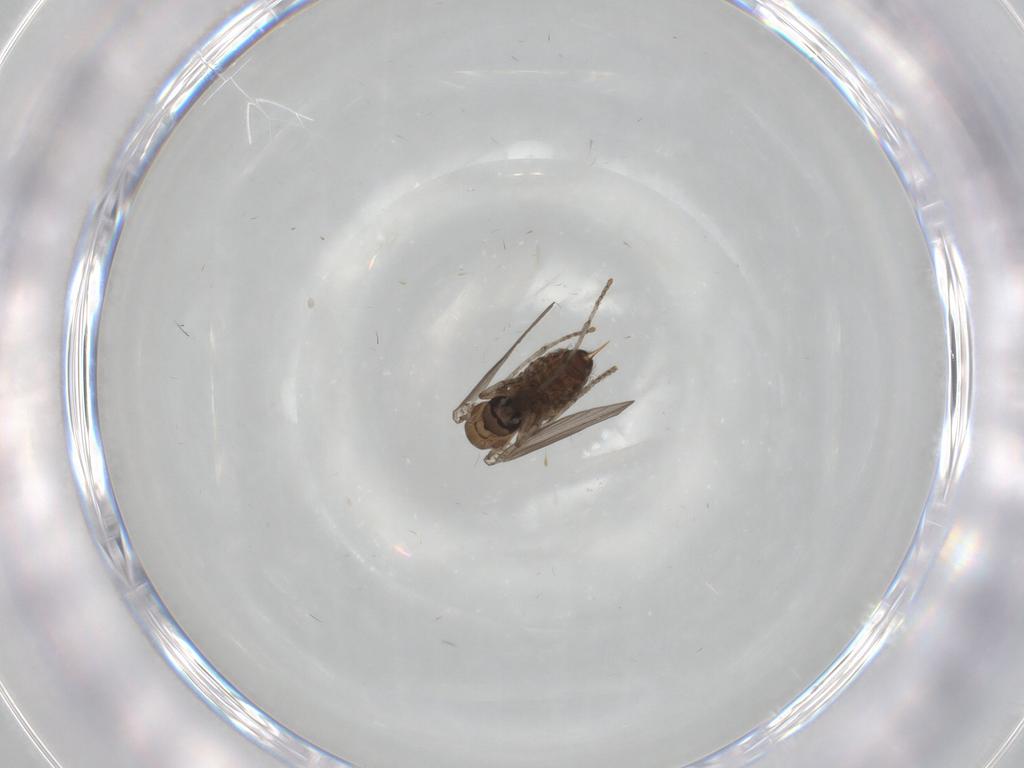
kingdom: Animalia
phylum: Arthropoda
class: Insecta
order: Diptera
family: Psychodidae
